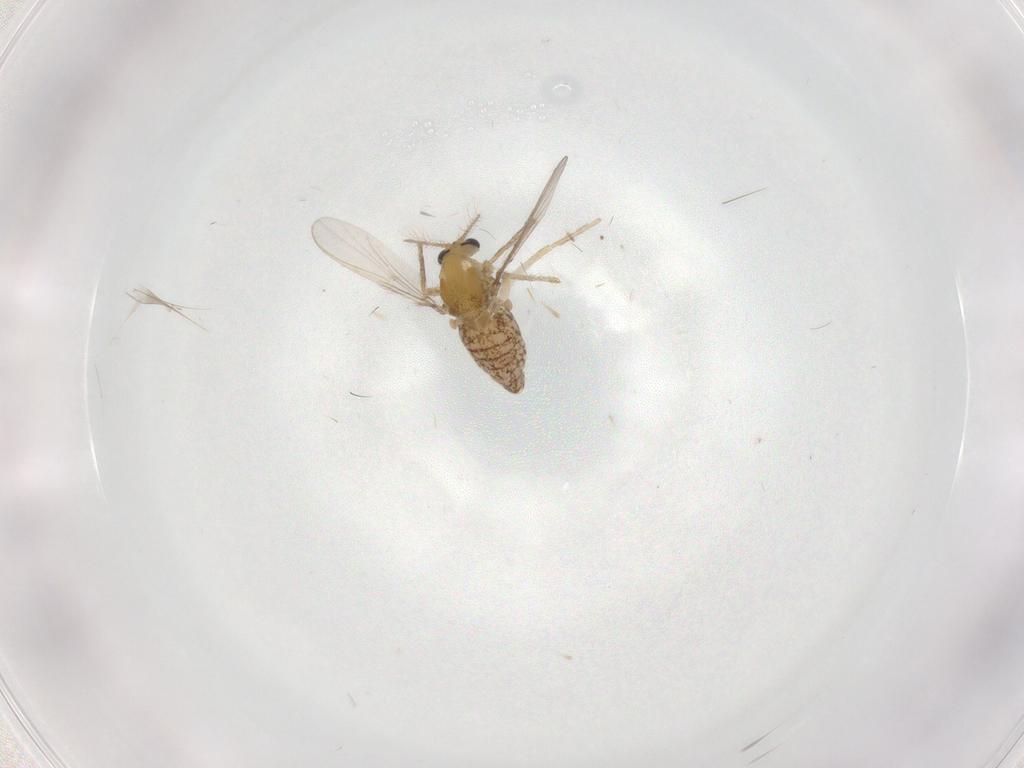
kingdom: Animalia
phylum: Arthropoda
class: Insecta
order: Diptera
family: Chironomidae
